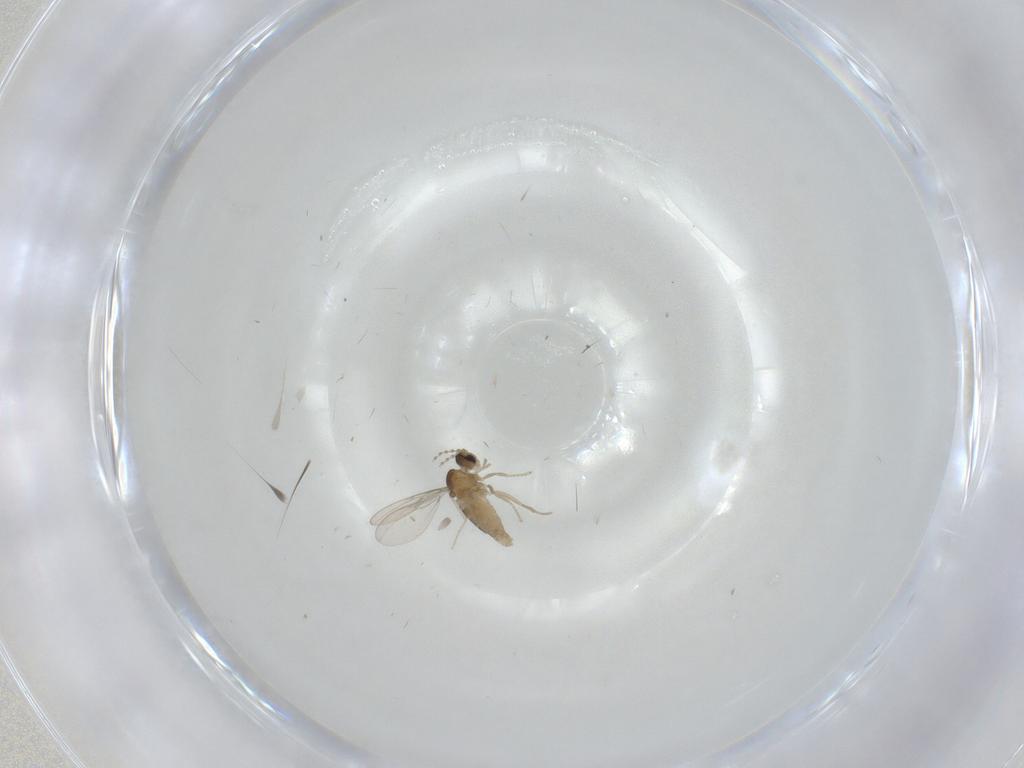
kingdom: Animalia
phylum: Arthropoda
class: Insecta
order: Diptera
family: Cecidomyiidae
